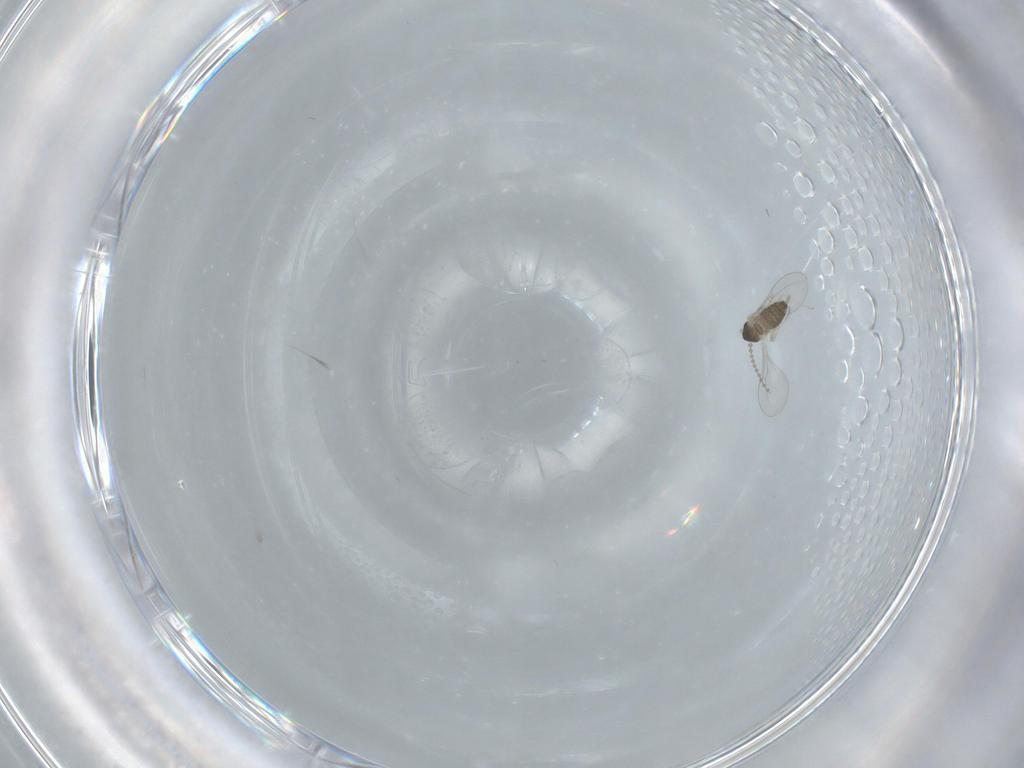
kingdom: Animalia
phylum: Arthropoda
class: Insecta
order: Diptera
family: Cecidomyiidae
